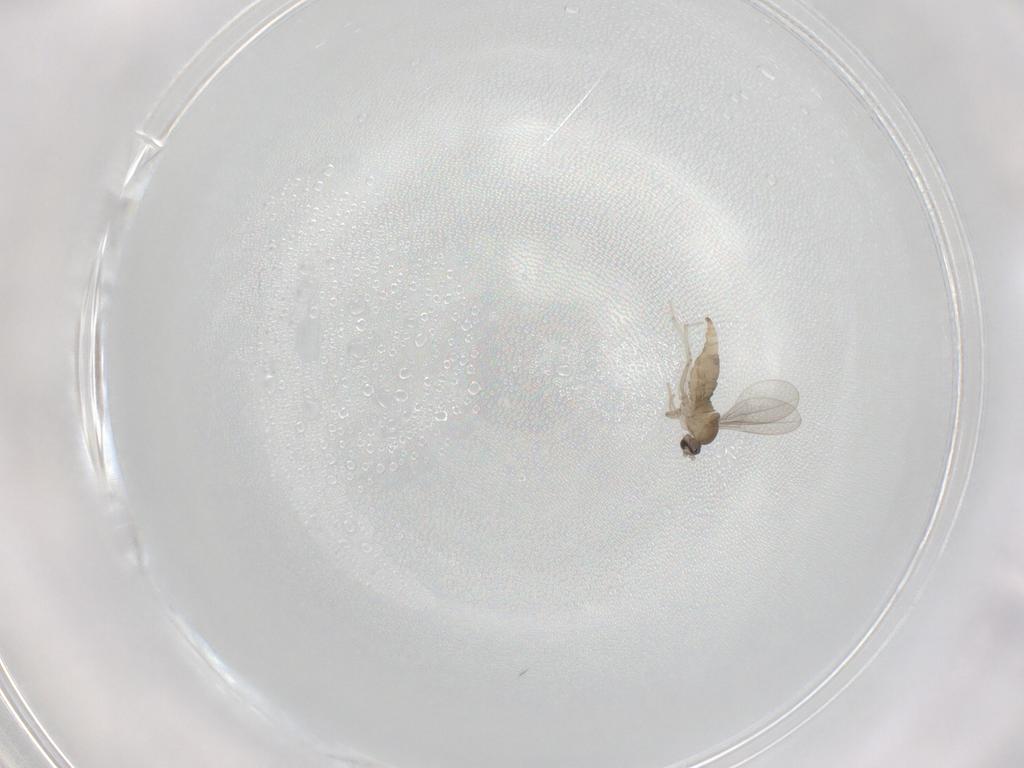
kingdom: Animalia
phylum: Arthropoda
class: Insecta
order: Diptera
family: Cecidomyiidae
